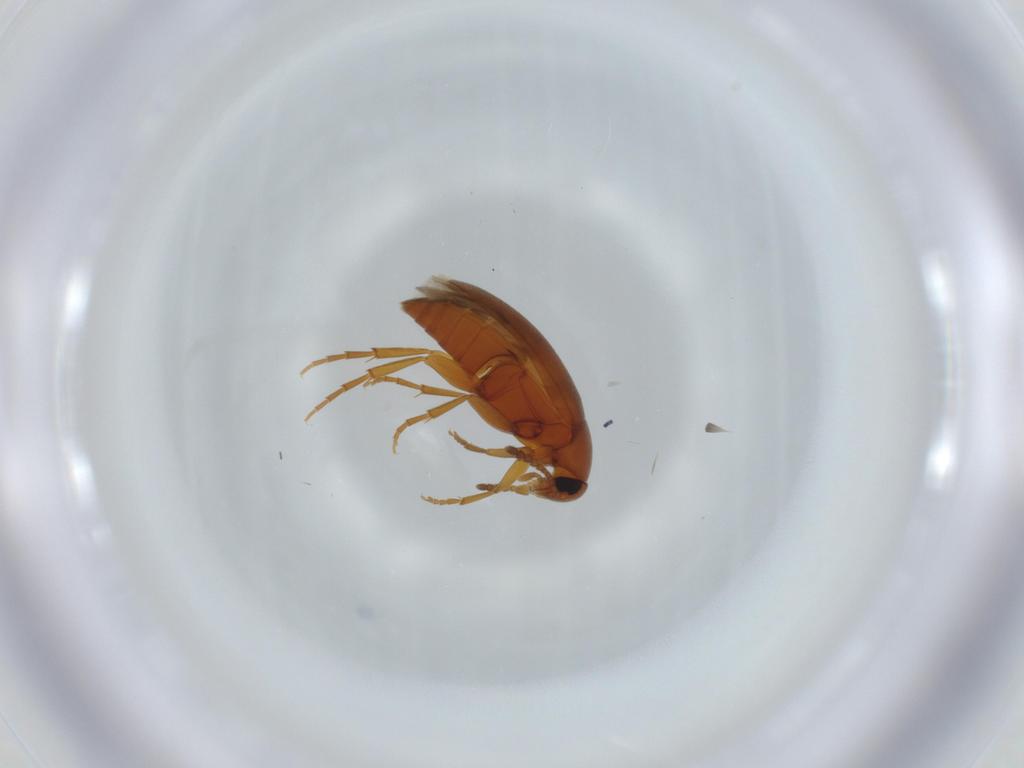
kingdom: Animalia
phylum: Arthropoda
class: Insecta
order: Coleoptera
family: Scraptiidae
